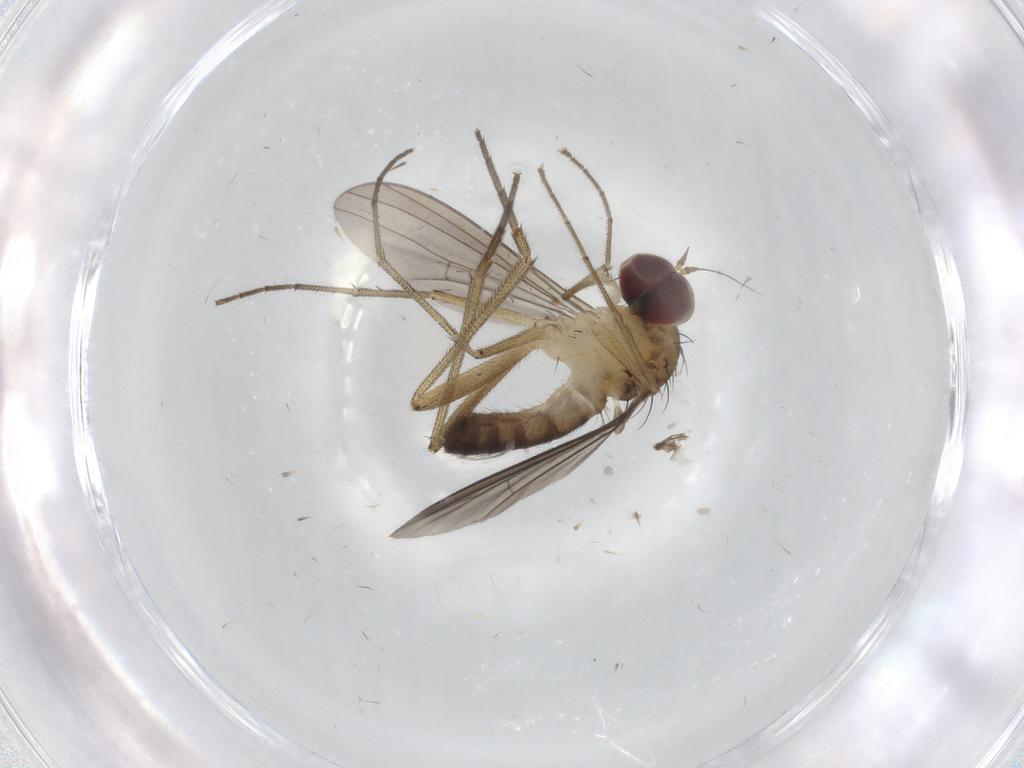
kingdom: Animalia
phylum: Arthropoda
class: Insecta
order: Diptera
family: Dolichopodidae
